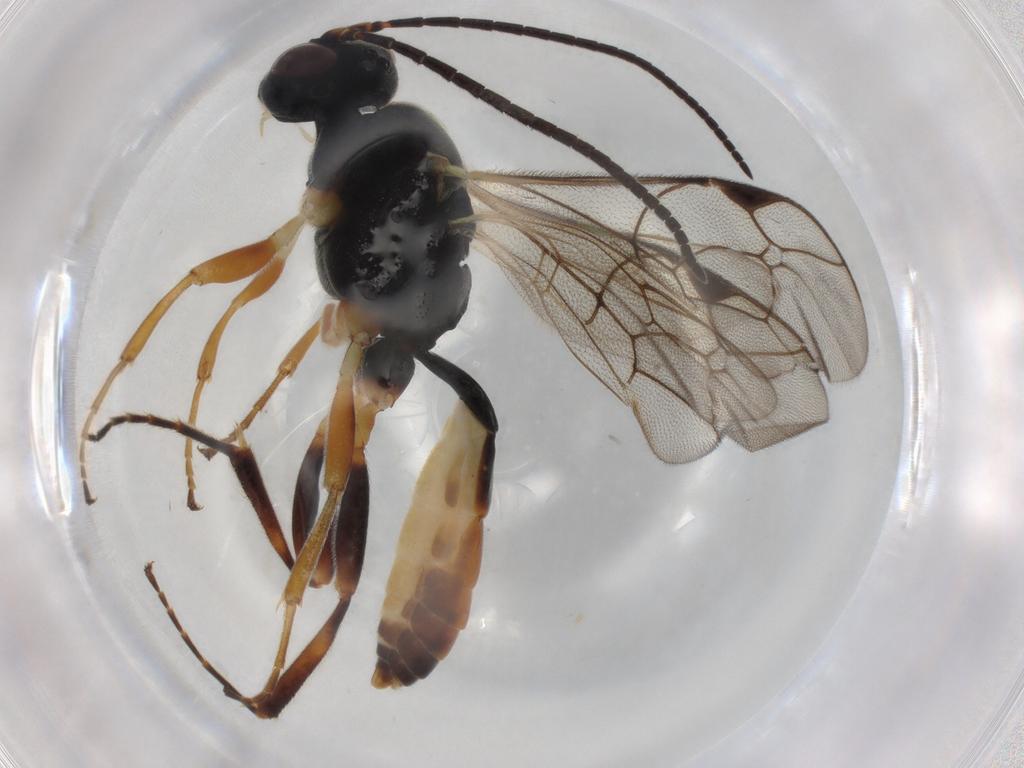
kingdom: Animalia
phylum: Arthropoda
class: Insecta
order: Hymenoptera
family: Ichneumonidae
